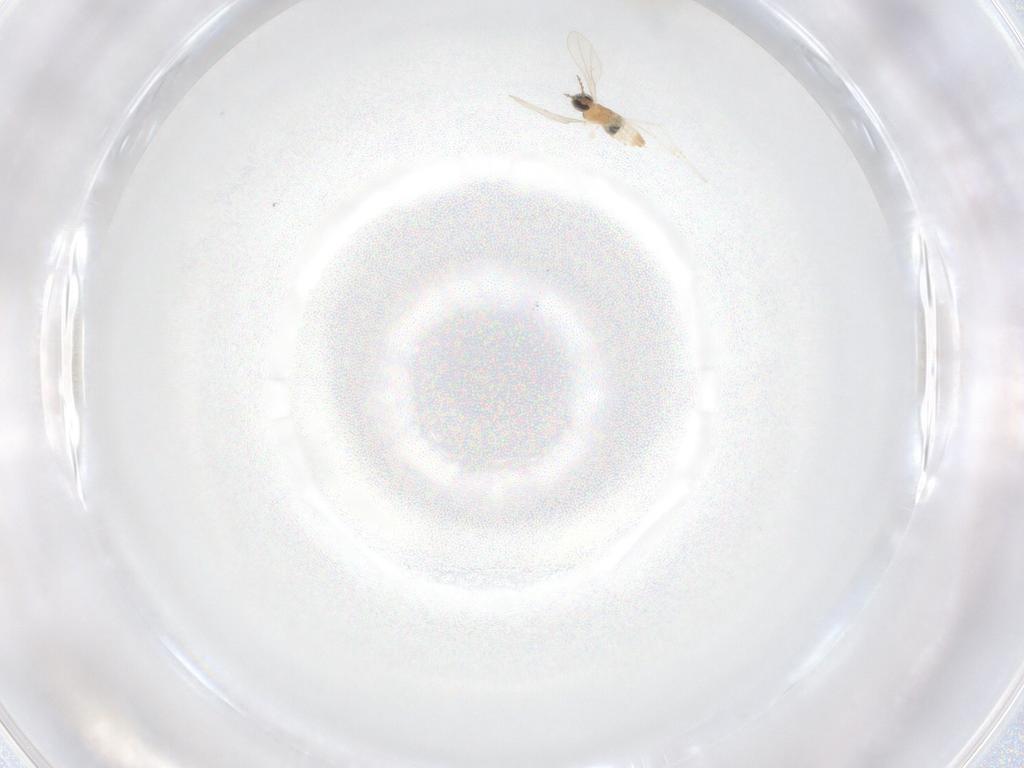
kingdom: Animalia
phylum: Arthropoda
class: Insecta
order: Diptera
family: Cecidomyiidae
